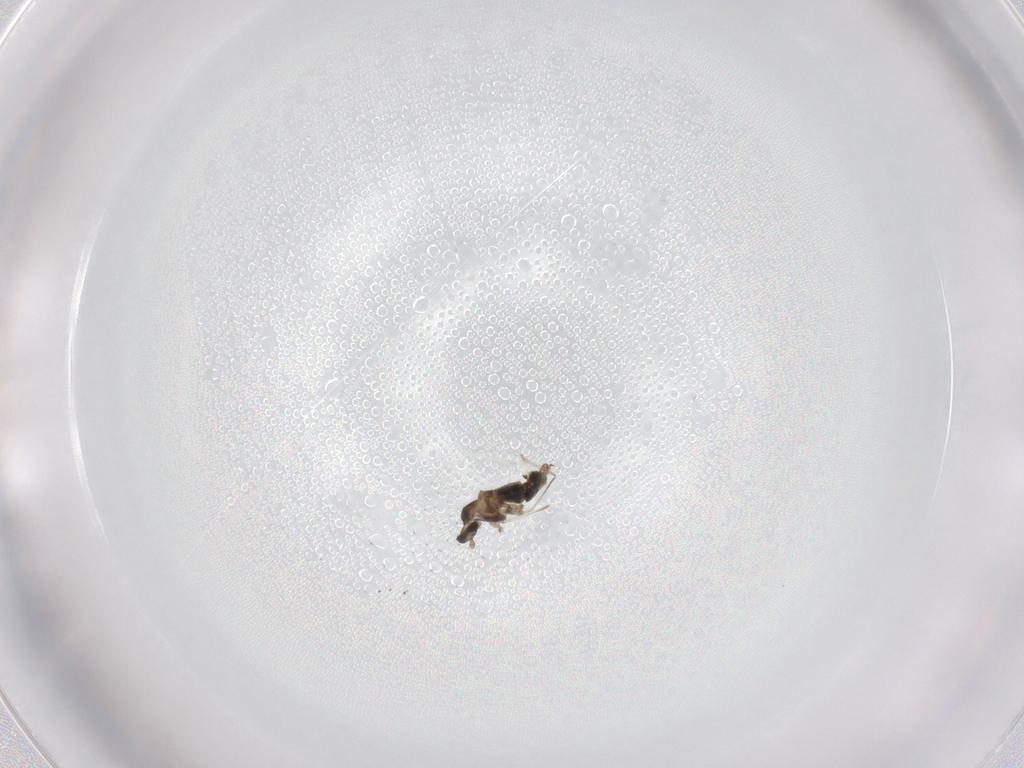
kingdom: Animalia
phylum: Arthropoda
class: Insecta
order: Diptera
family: Cecidomyiidae
